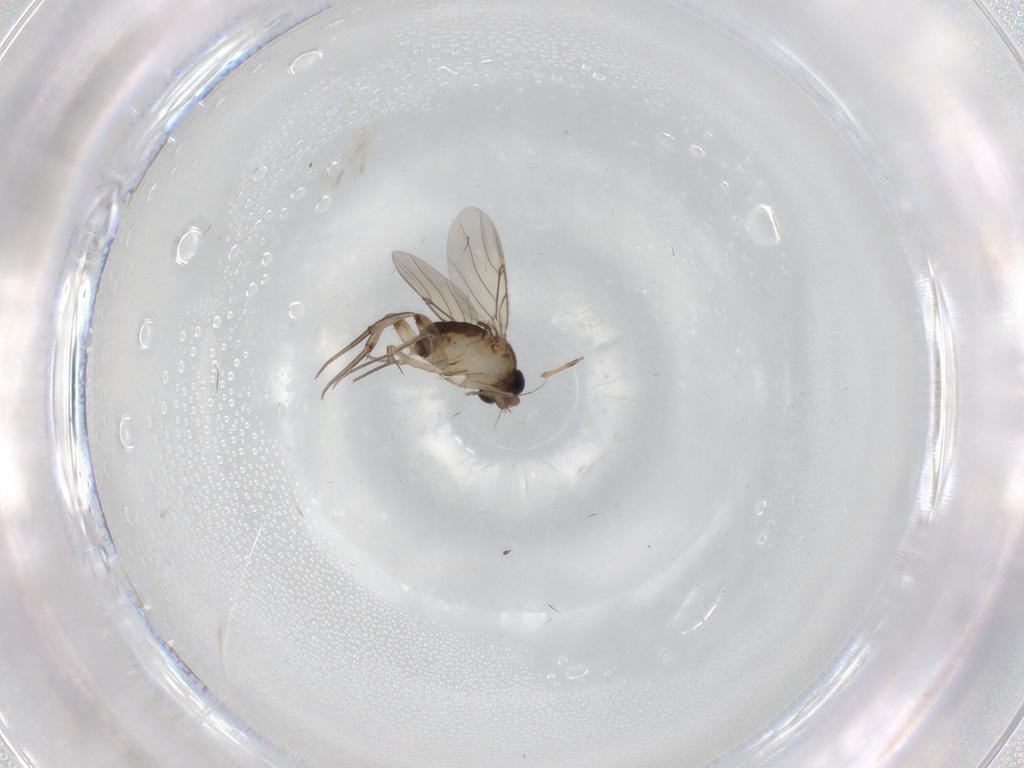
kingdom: Animalia
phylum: Arthropoda
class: Insecta
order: Diptera
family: Phoridae
